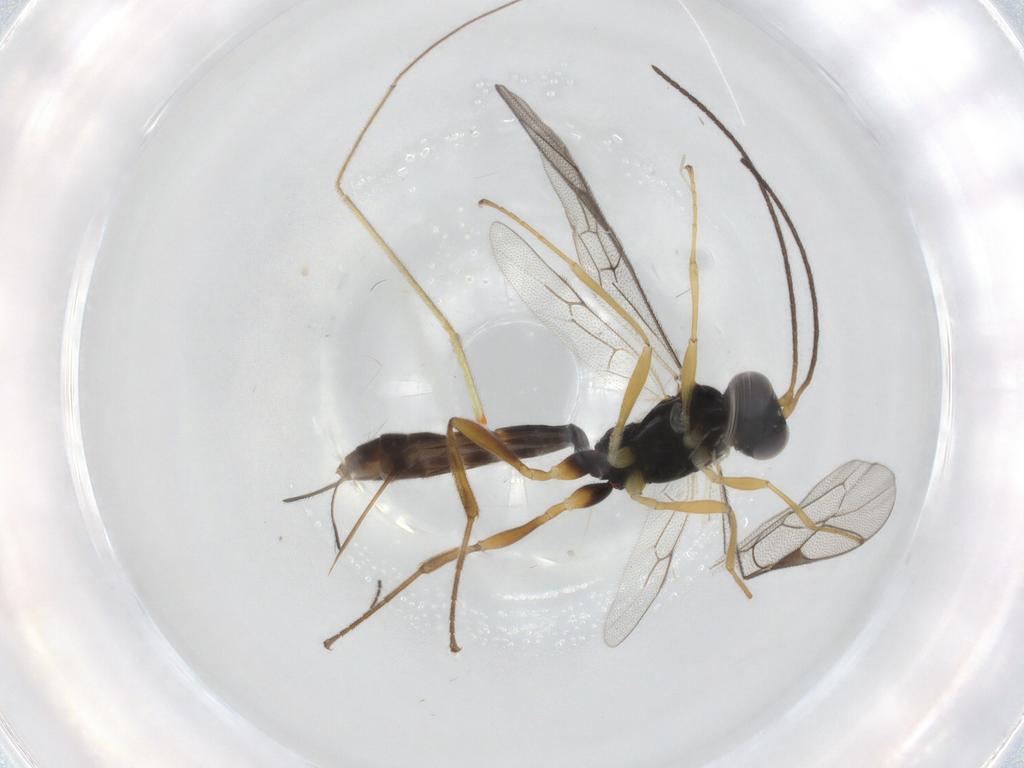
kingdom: Animalia
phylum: Arthropoda
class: Insecta
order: Hymenoptera
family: Ichneumonidae
